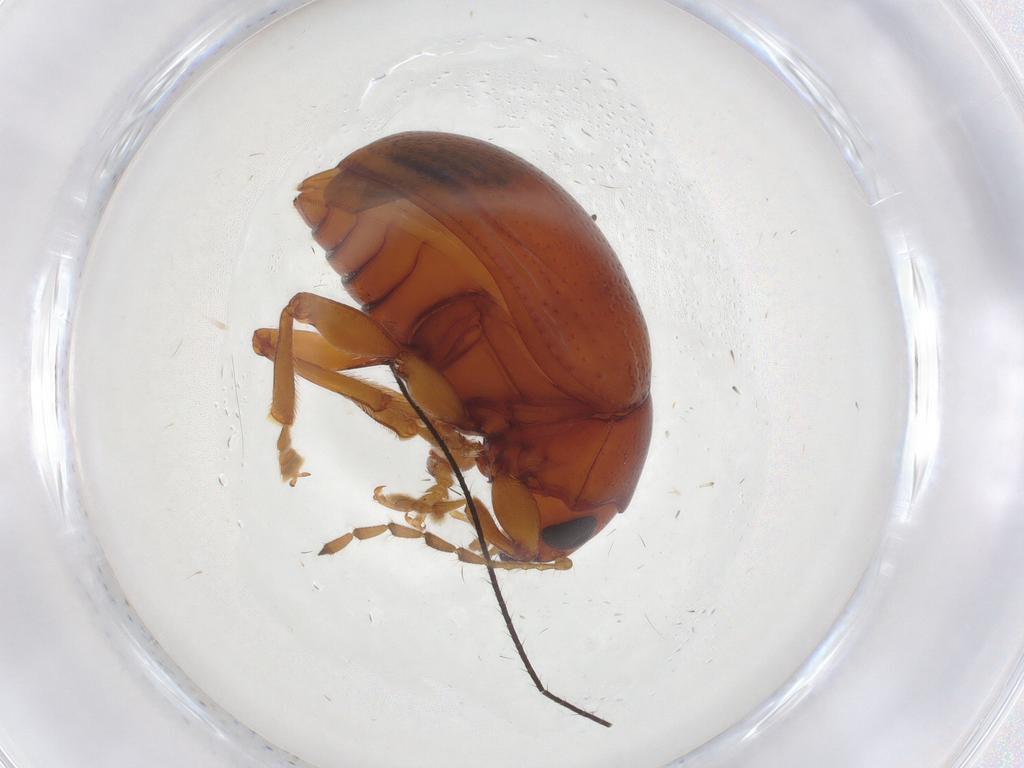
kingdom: Animalia
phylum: Arthropoda
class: Insecta
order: Coleoptera
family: Chrysomelidae
